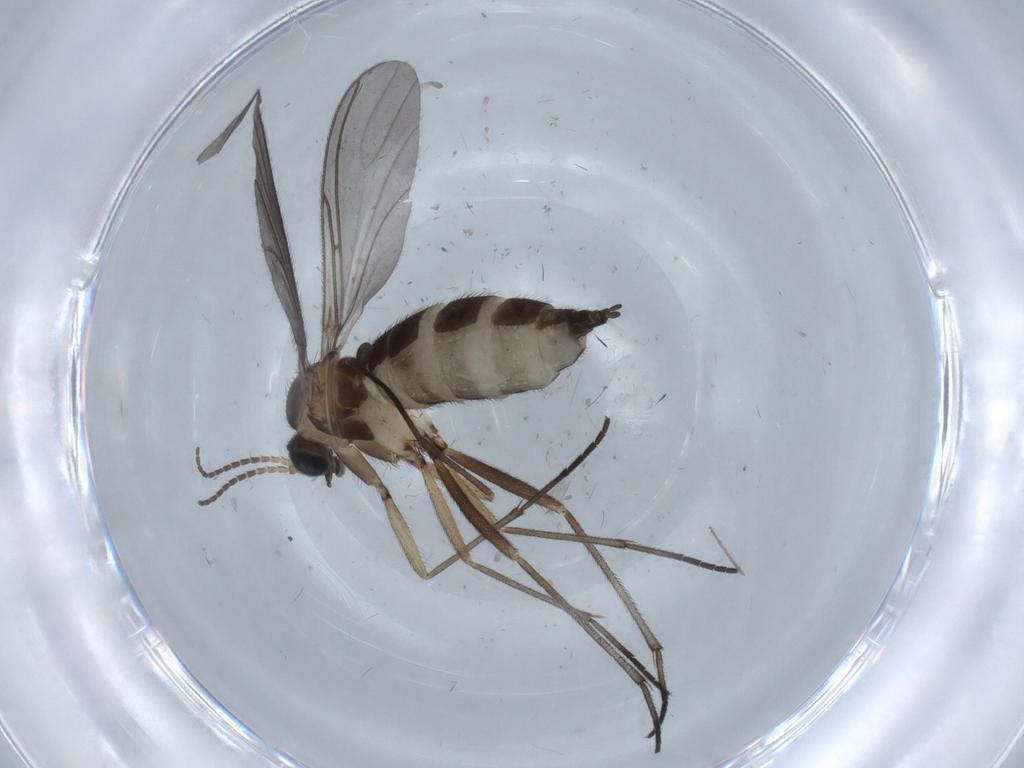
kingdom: Animalia
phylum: Arthropoda
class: Insecta
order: Diptera
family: Sciaridae
